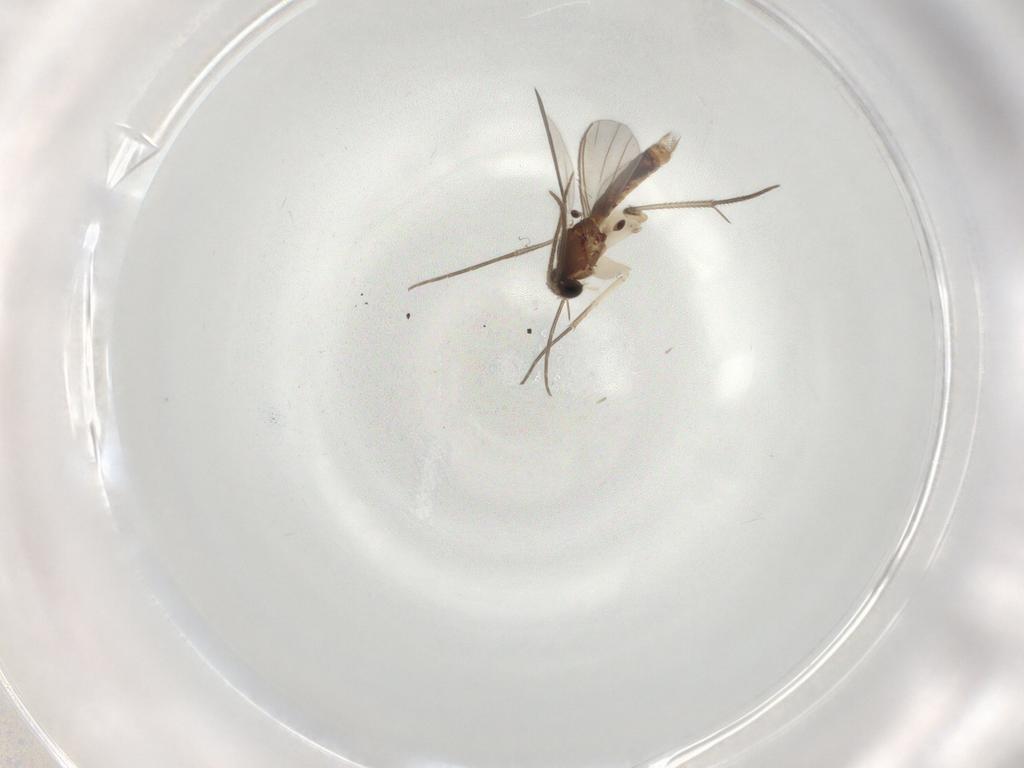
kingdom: Animalia
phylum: Arthropoda
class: Insecta
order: Diptera
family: Mycetophilidae
